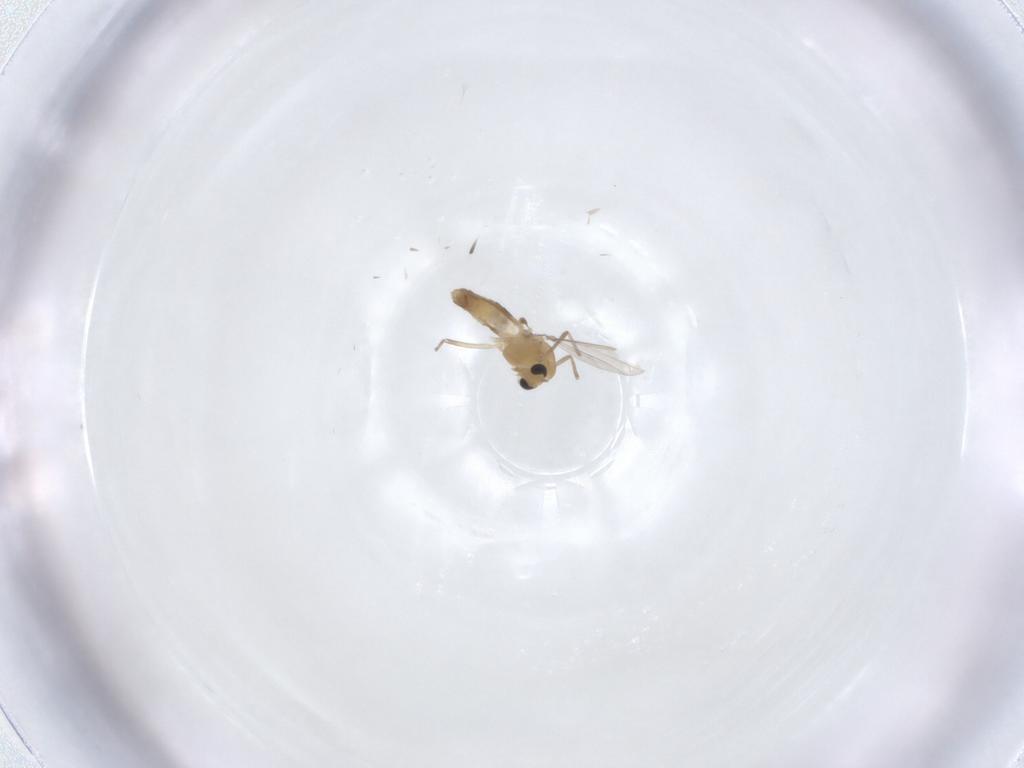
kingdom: Animalia
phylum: Arthropoda
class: Insecta
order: Diptera
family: Chironomidae
